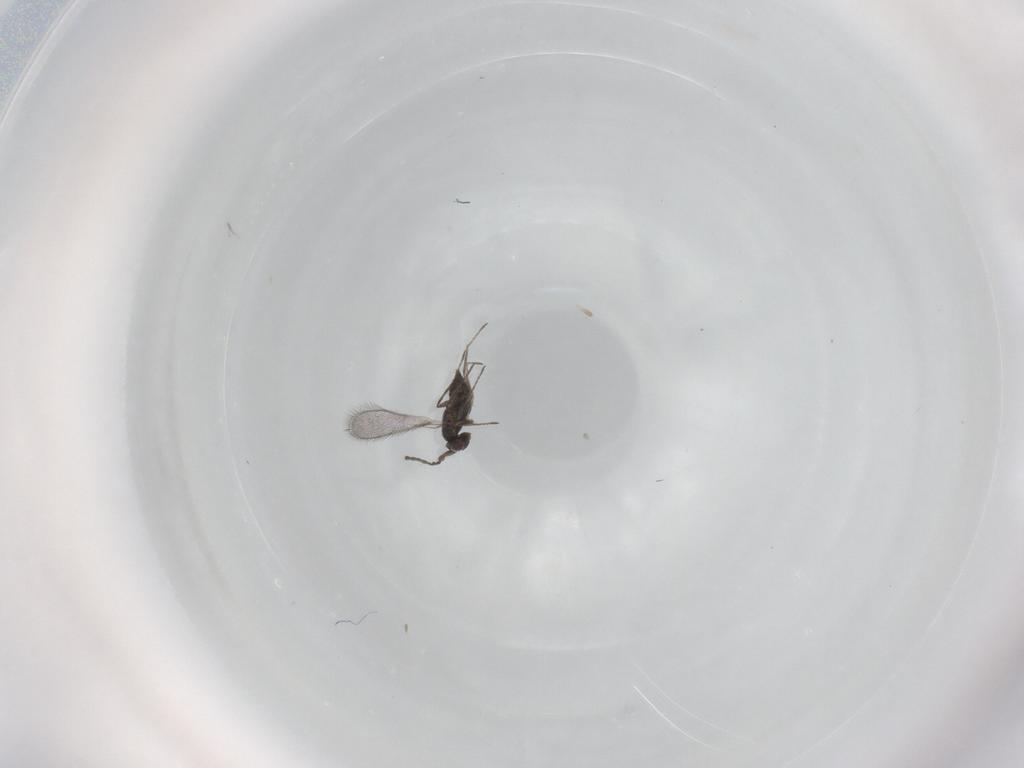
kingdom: Animalia
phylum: Arthropoda
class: Insecta
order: Hymenoptera
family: Mymaridae
